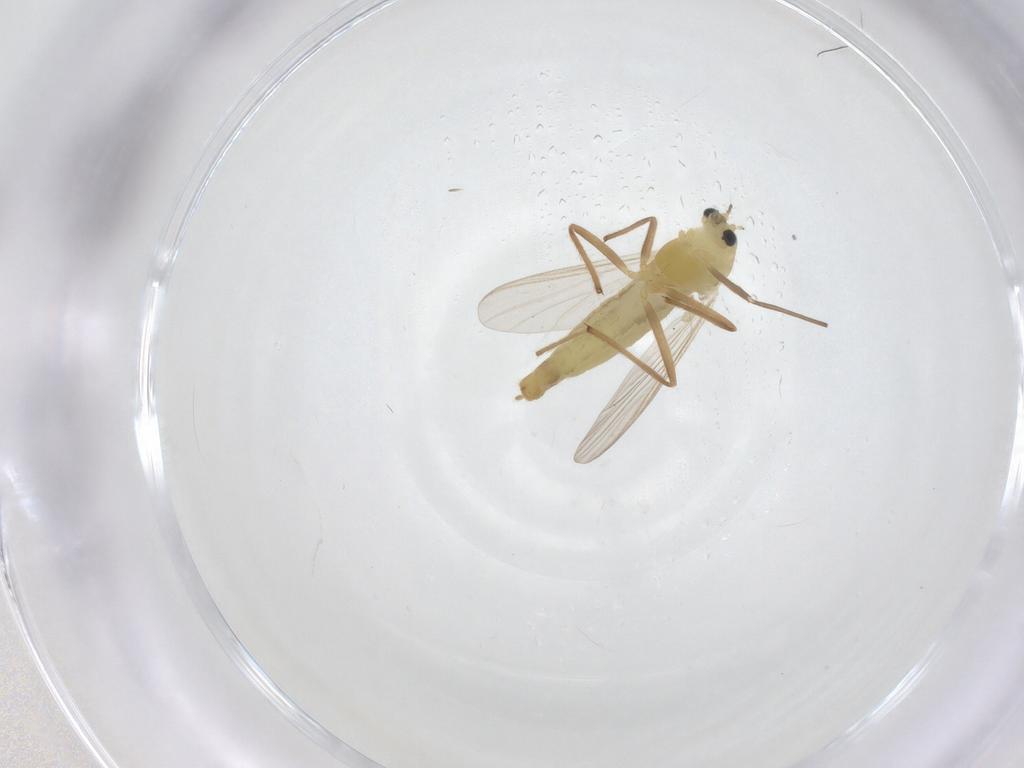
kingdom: Animalia
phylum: Arthropoda
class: Insecta
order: Diptera
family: Chironomidae
